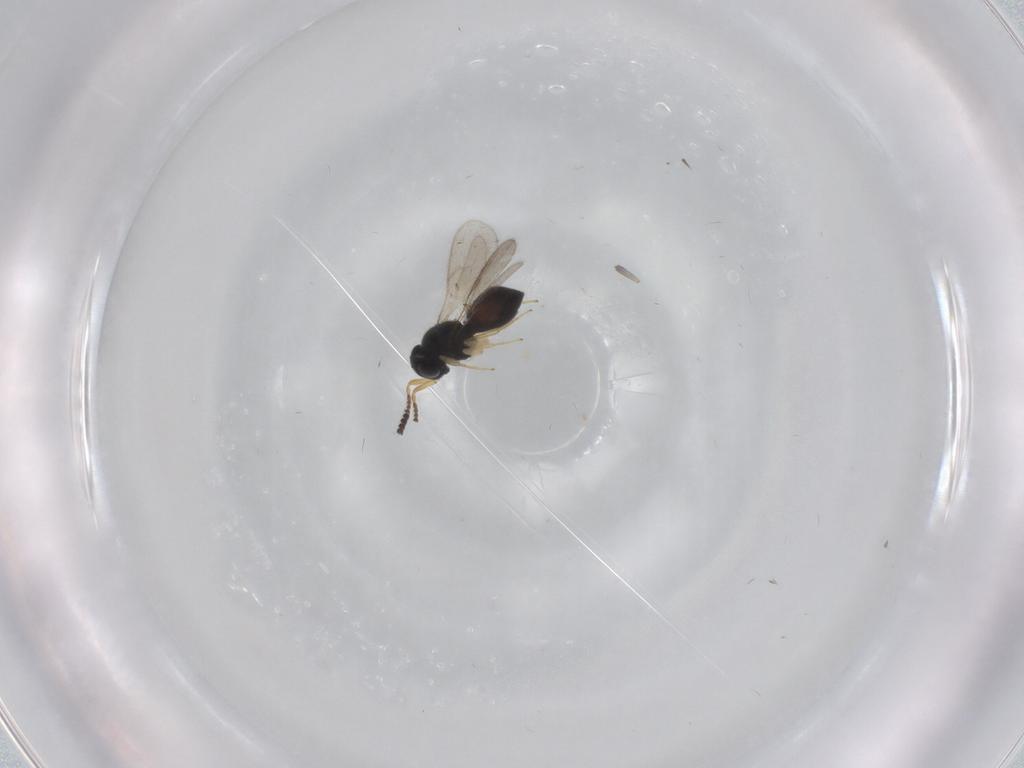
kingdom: Animalia
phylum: Arthropoda
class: Insecta
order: Hymenoptera
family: Scelionidae
